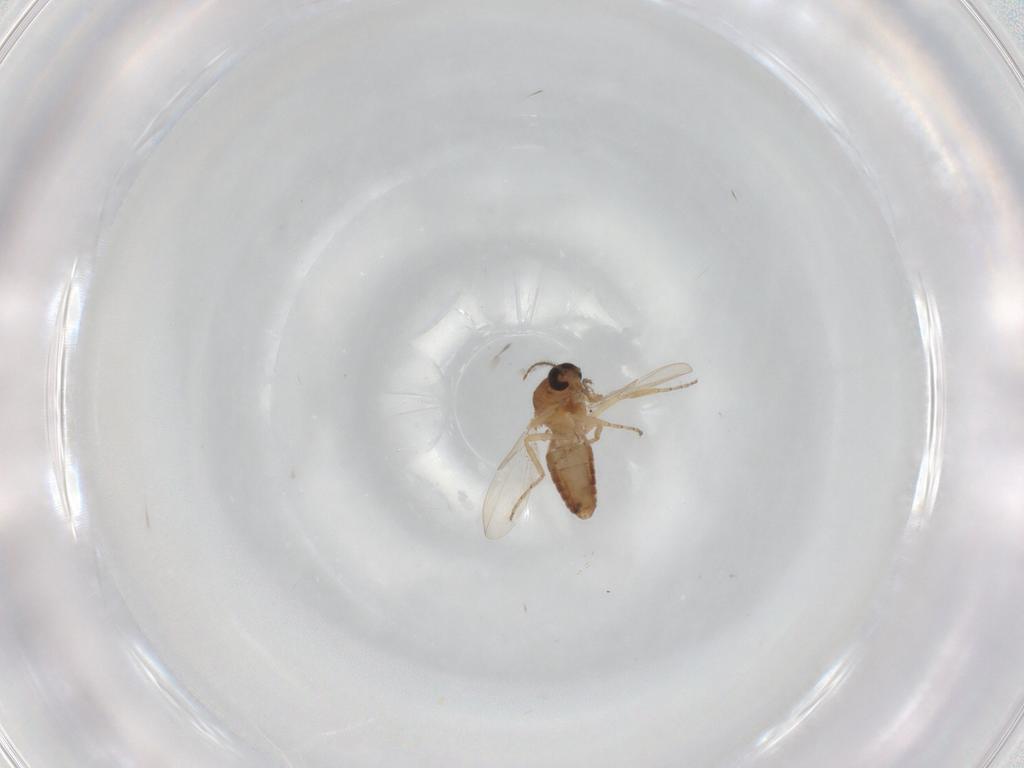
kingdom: Animalia
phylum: Arthropoda
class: Insecta
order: Diptera
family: Ceratopogonidae
